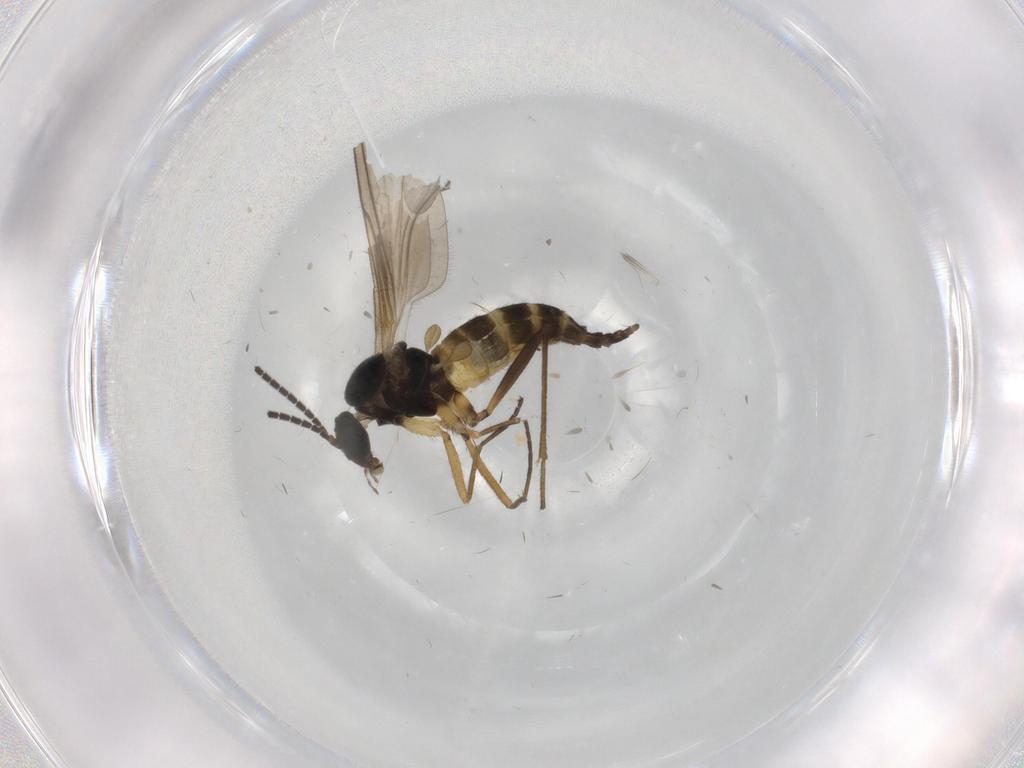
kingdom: Animalia
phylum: Arthropoda
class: Insecta
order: Diptera
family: Sciaridae
